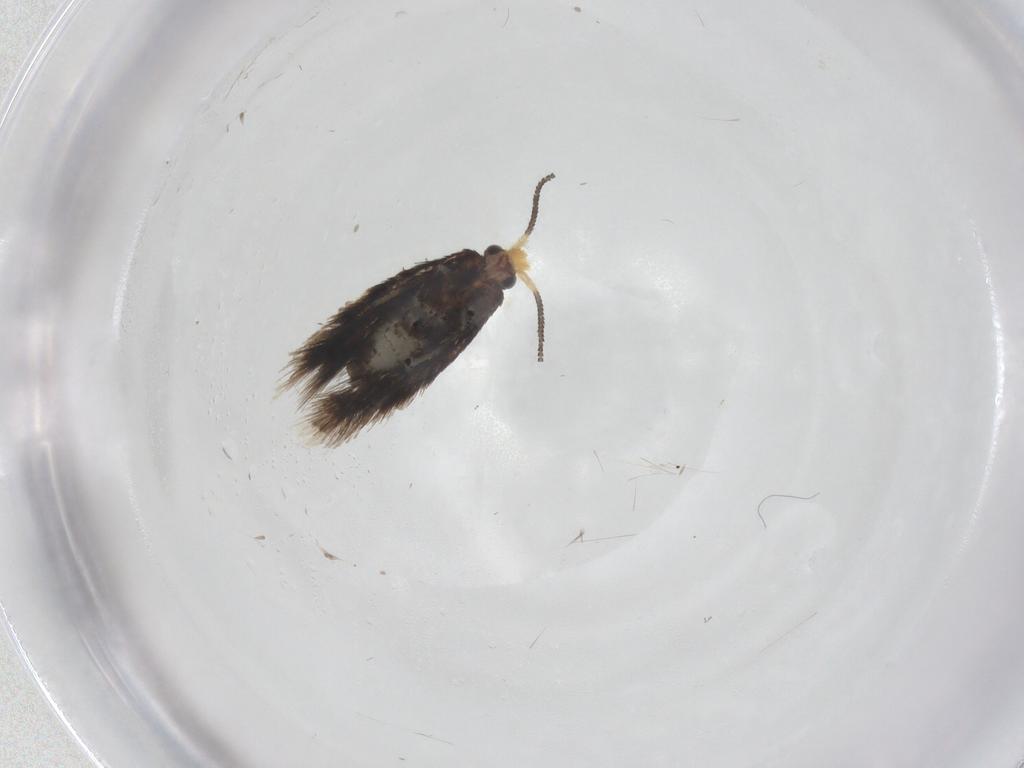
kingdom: Animalia
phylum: Arthropoda
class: Insecta
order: Lepidoptera
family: Nepticulidae
